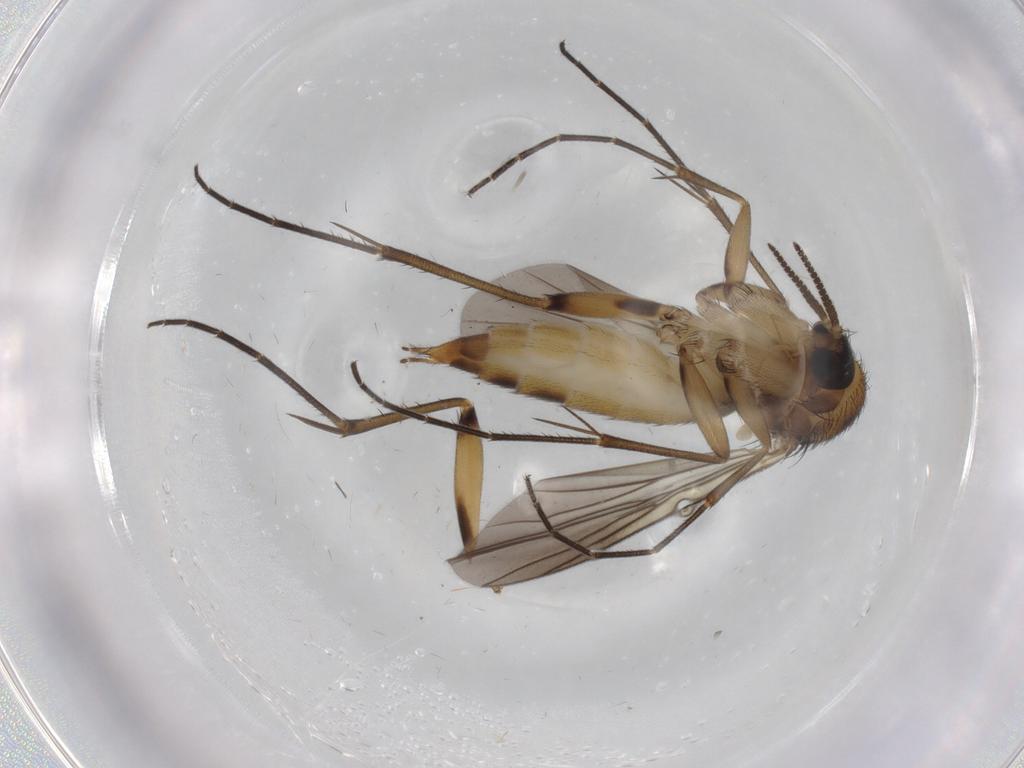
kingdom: Animalia
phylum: Arthropoda
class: Insecta
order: Diptera
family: Mycetophilidae
